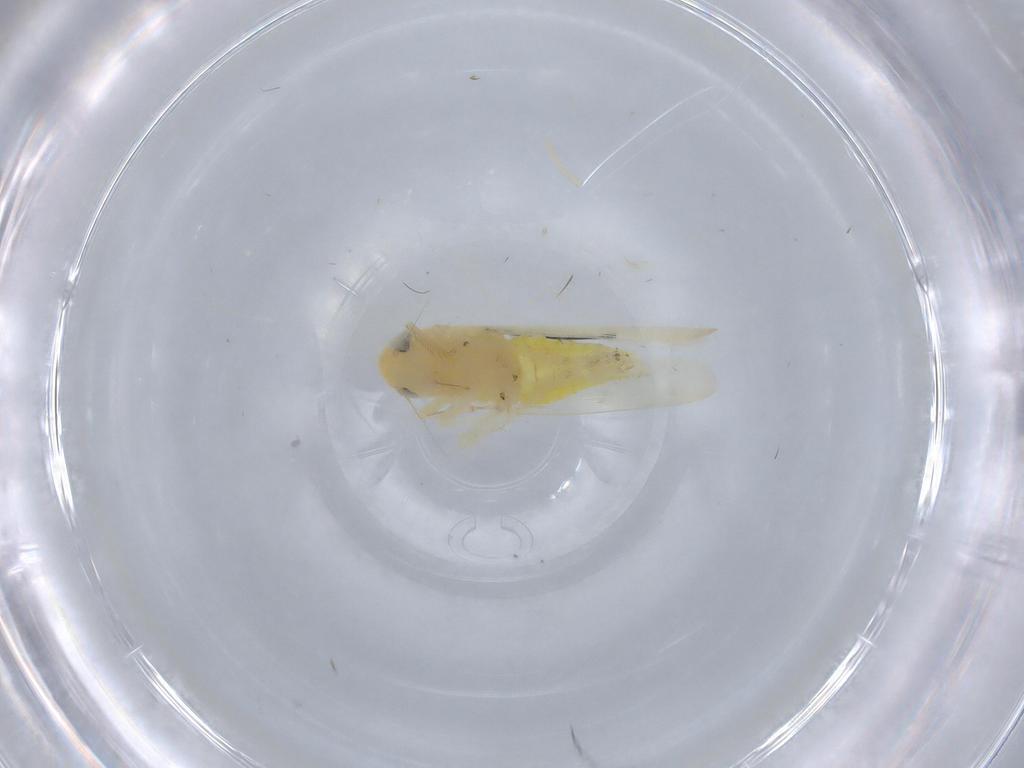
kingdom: Animalia
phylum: Arthropoda
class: Insecta
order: Hemiptera
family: Cicadellidae
